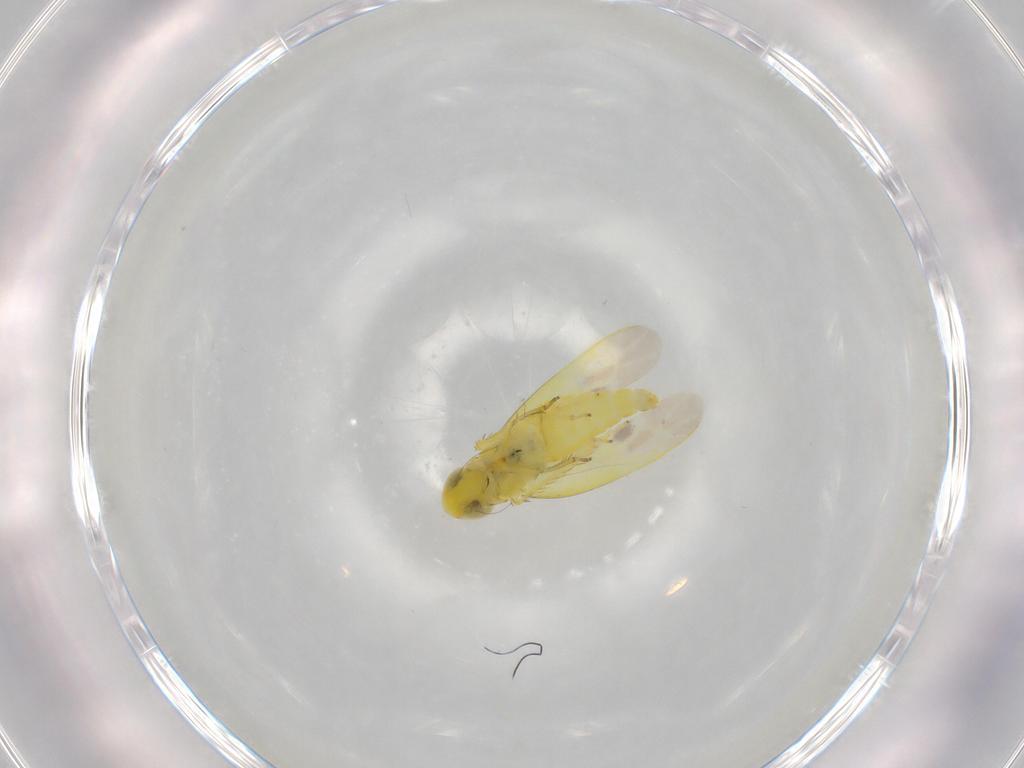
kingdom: Animalia
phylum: Arthropoda
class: Insecta
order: Hemiptera
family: Cicadellidae
